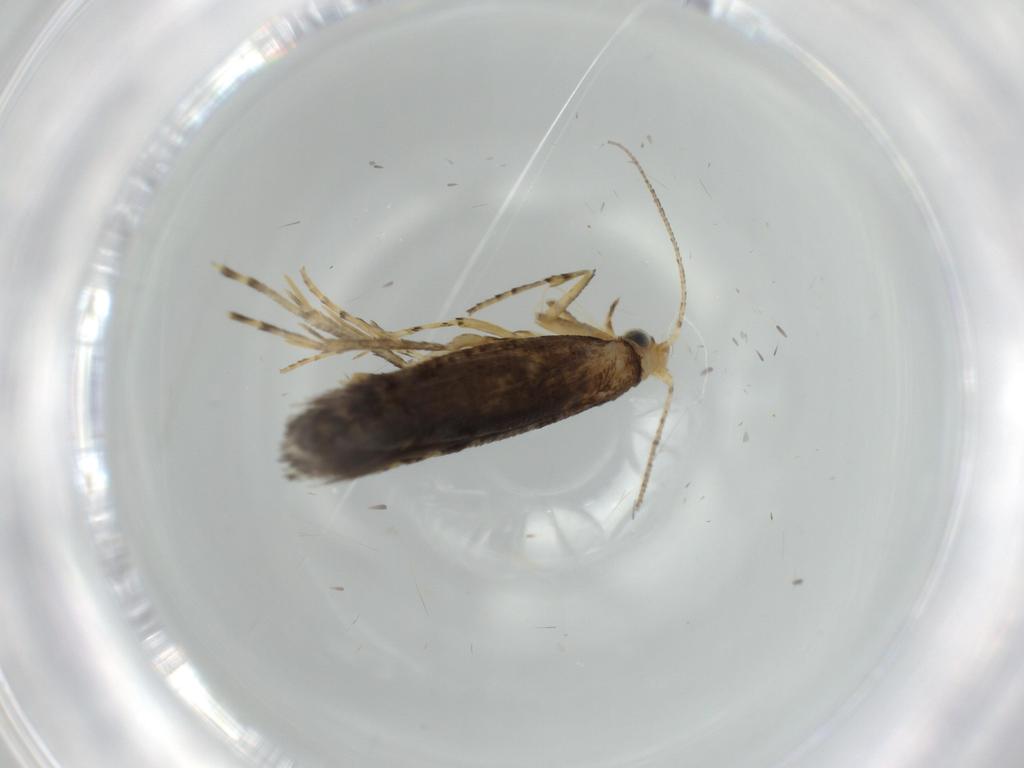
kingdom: Animalia
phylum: Arthropoda
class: Insecta
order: Lepidoptera
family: Argyresthiidae
